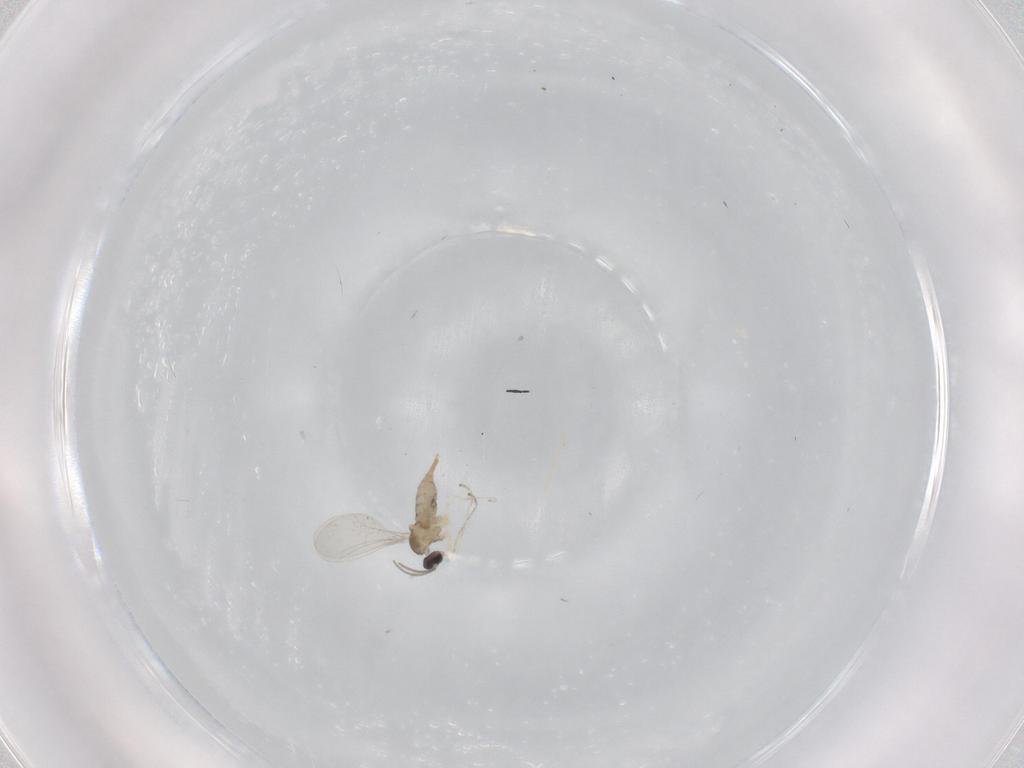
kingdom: Animalia
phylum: Arthropoda
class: Insecta
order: Diptera
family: Cecidomyiidae
